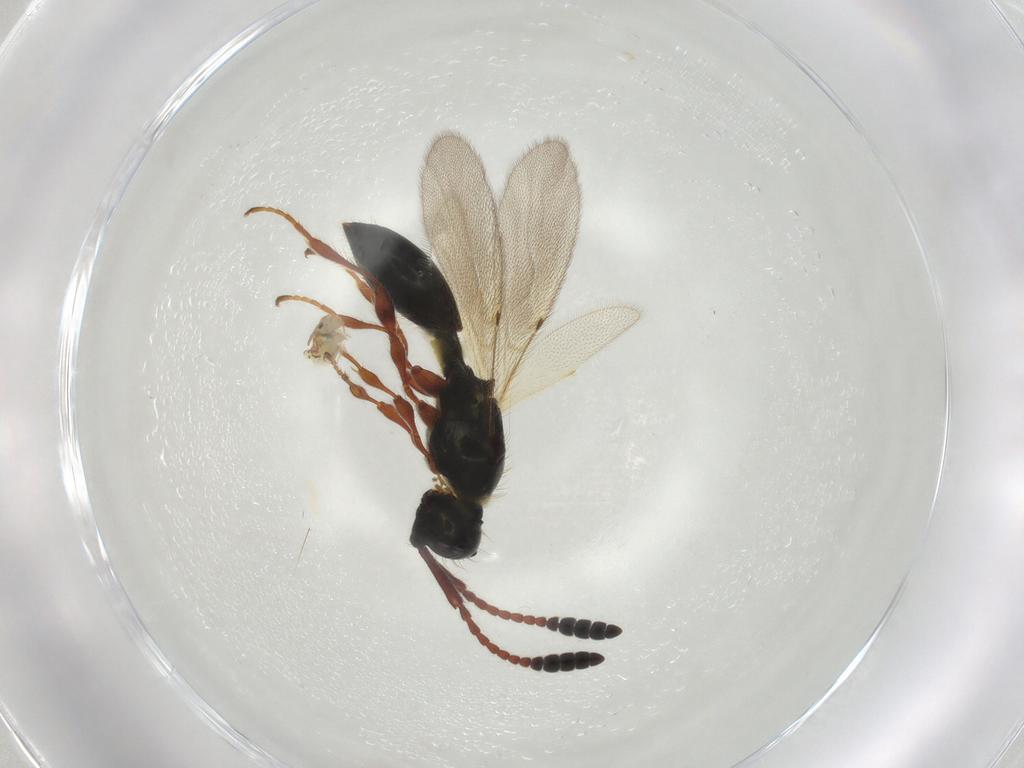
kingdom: Animalia
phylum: Arthropoda
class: Insecta
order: Hymenoptera
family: Diapriidae
